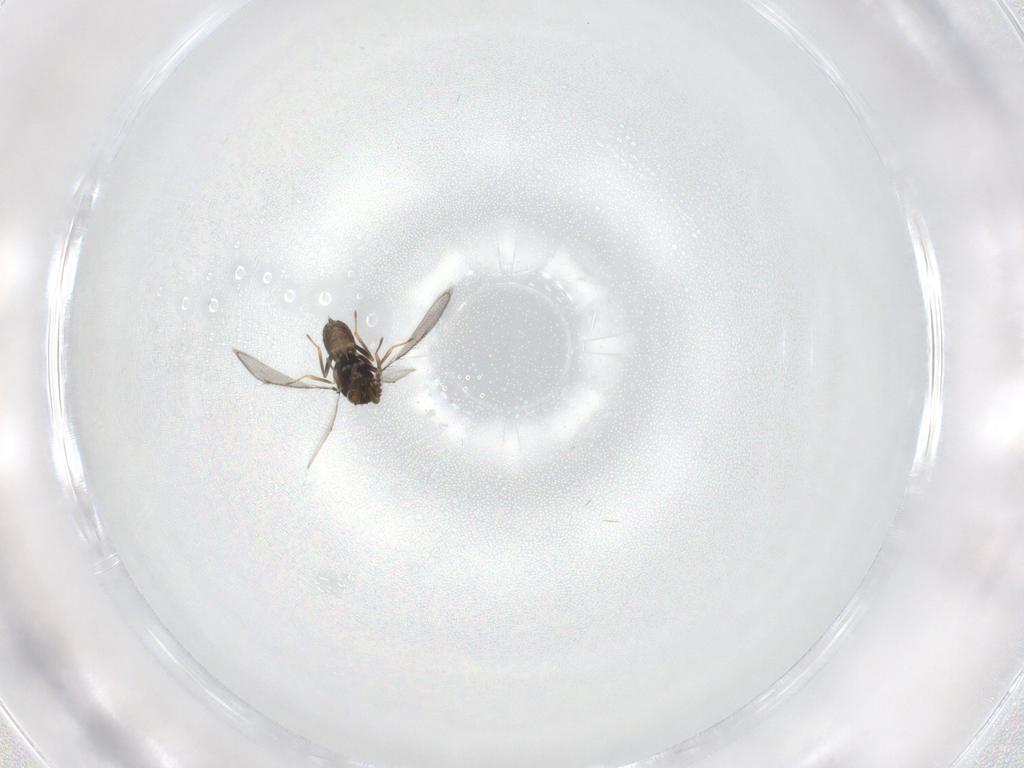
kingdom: Animalia
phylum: Arthropoda
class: Insecta
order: Hymenoptera
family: Eulophidae
